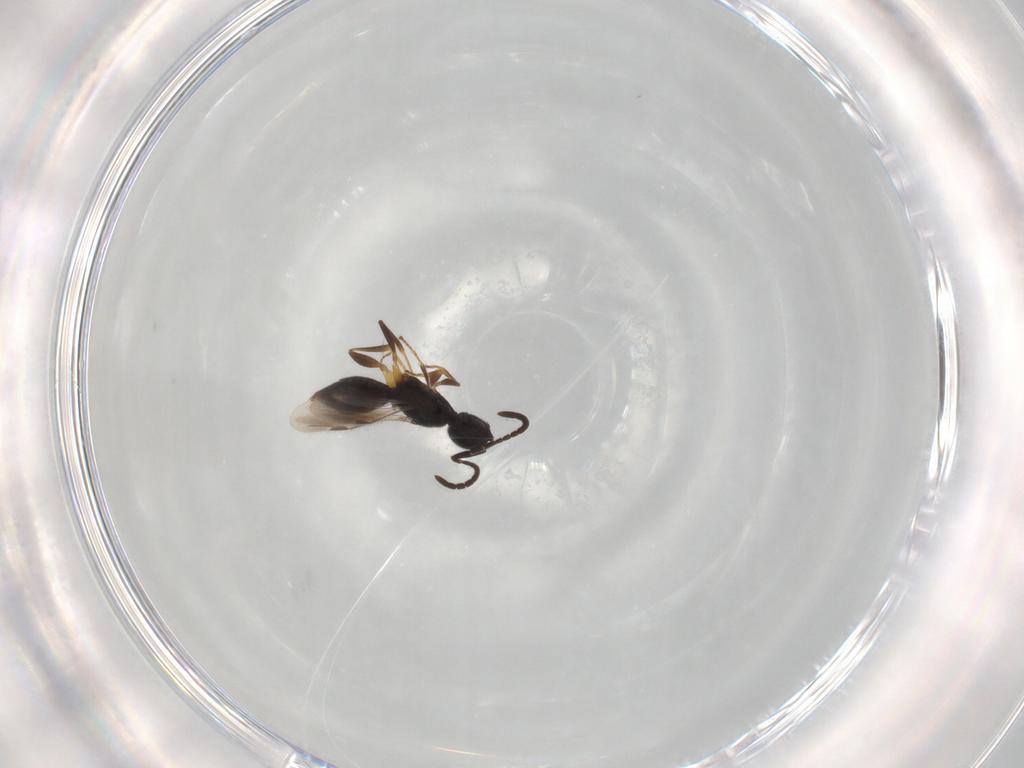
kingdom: Animalia
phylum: Arthropoda
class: Insecta
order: Hymenoptera
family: Megaspilidae
